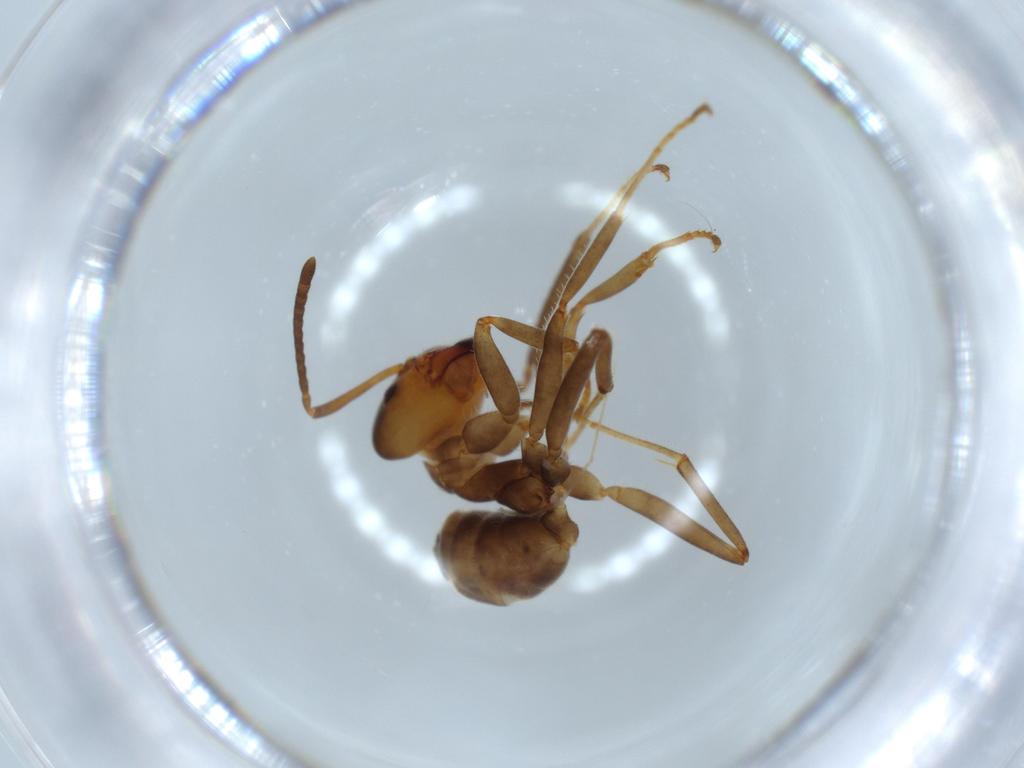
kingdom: Animalia
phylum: Arthropoda
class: Insecta
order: Hymenoptera
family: Formicidae
